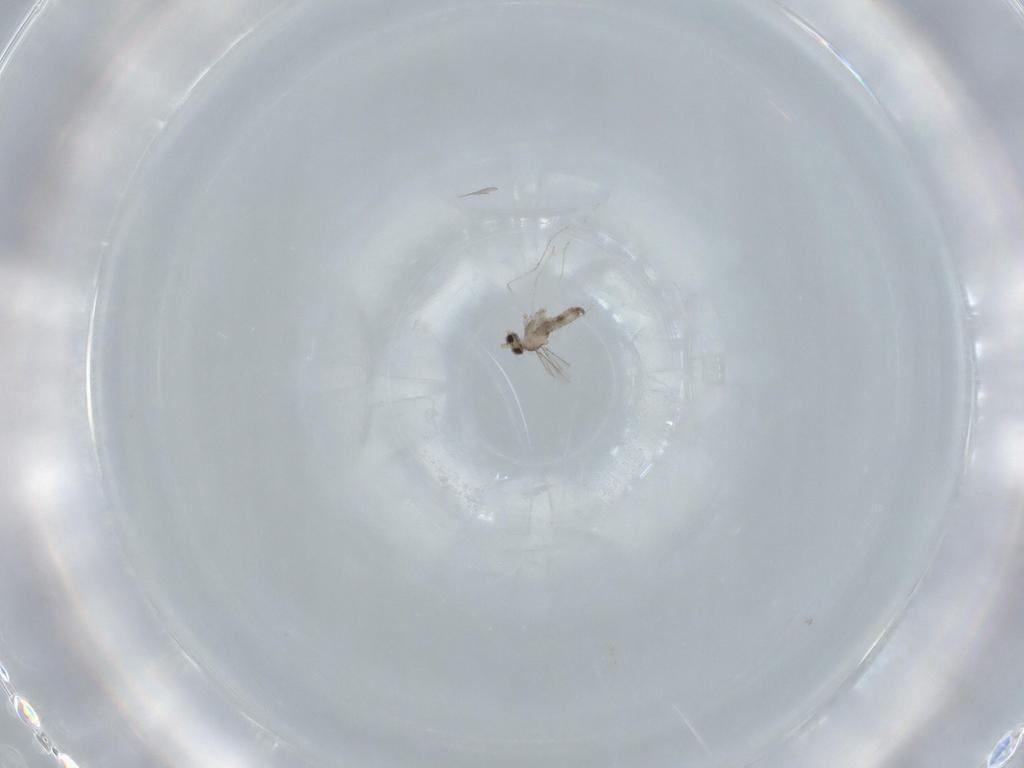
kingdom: Animalia
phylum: Arthropoda
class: Insecta
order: Diptera
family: Cecidomyiidae
